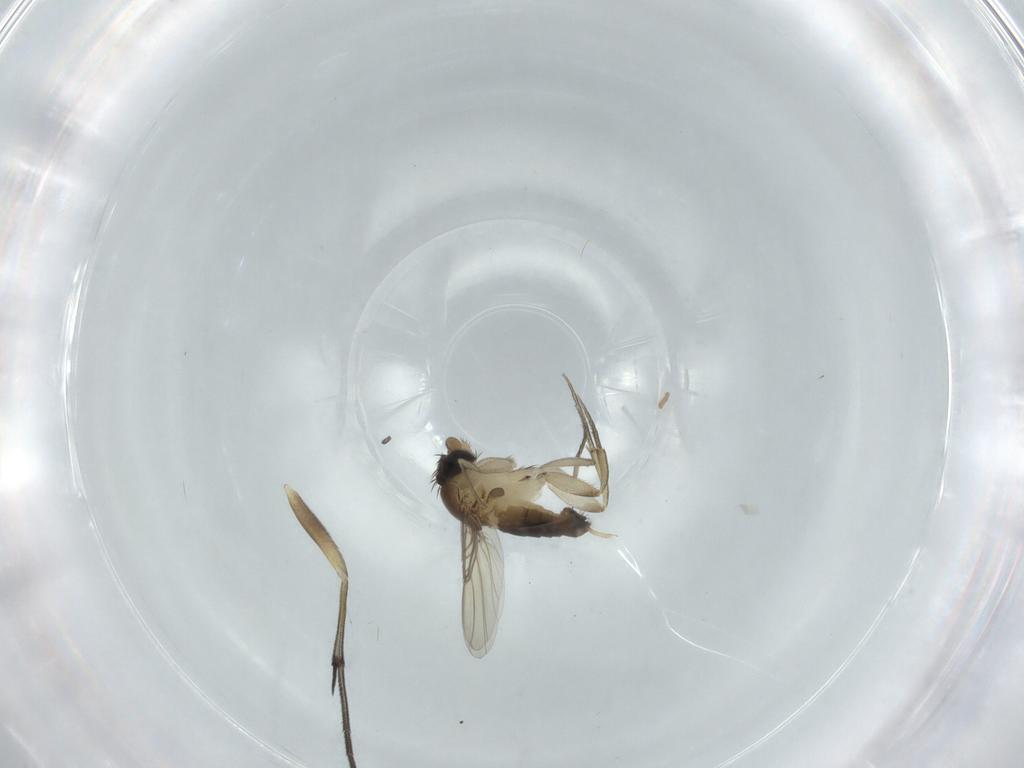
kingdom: Animalia
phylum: Arthropoda
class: Insecta
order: Diptera
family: Phoridae
